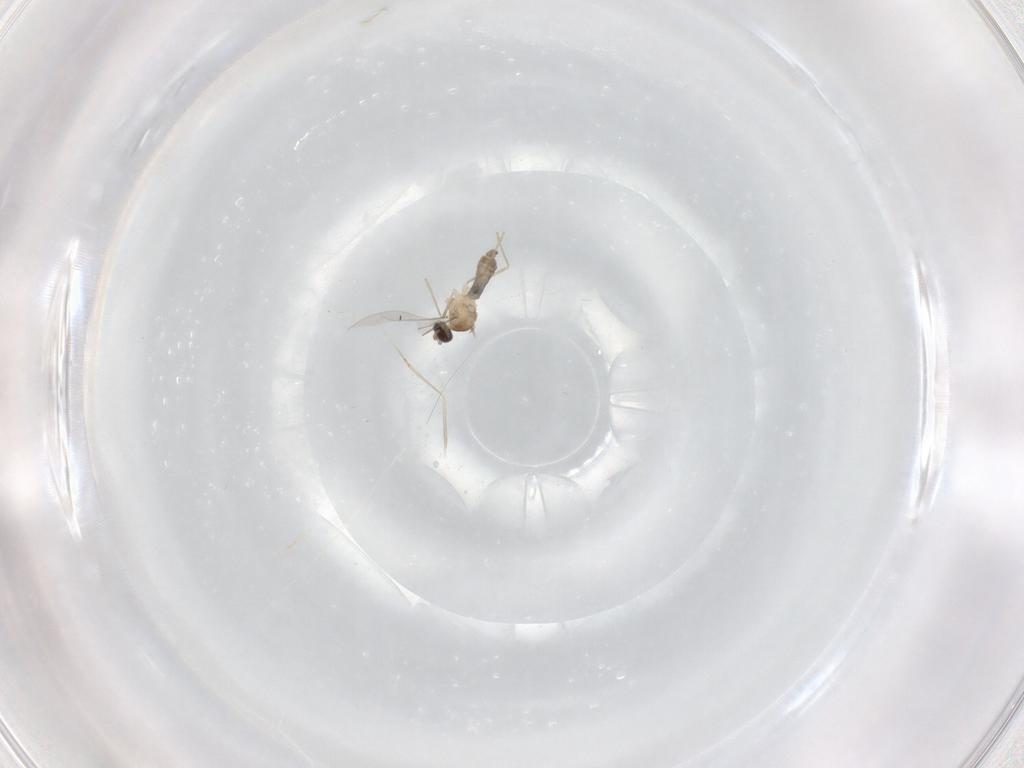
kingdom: Animalia
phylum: Arthropoda
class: Insecta
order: Diptera
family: Cecidomyiidae
